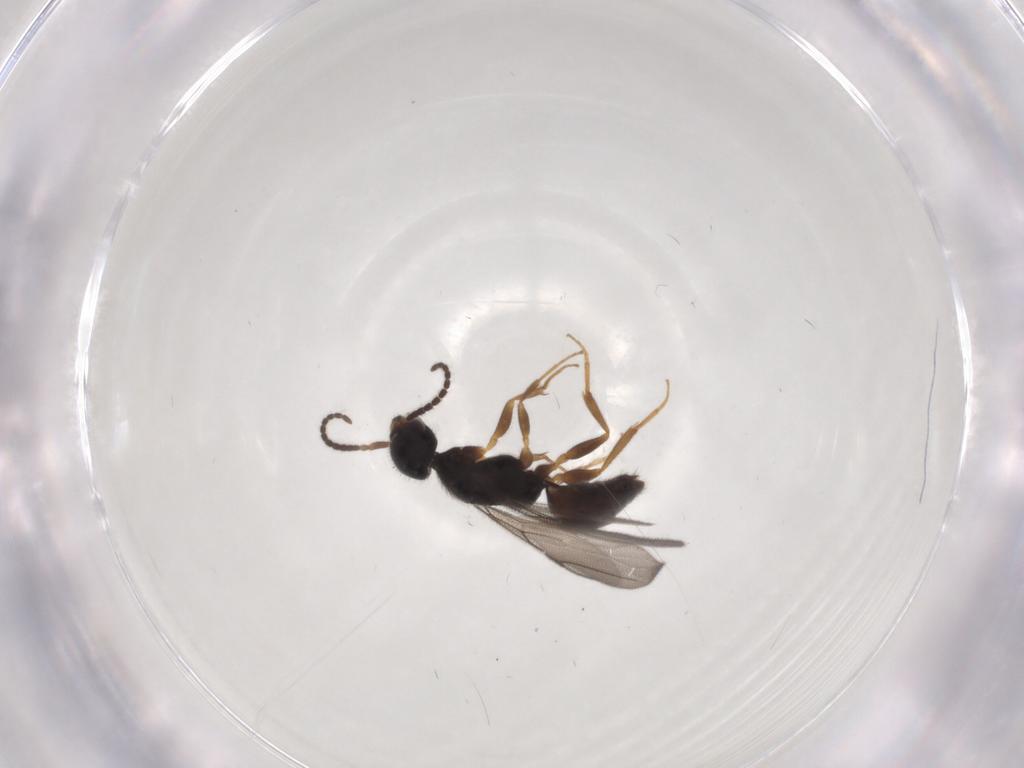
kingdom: Animalia
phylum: Arthropoda
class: Insecta
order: Hymenoptera
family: Bethylidae
